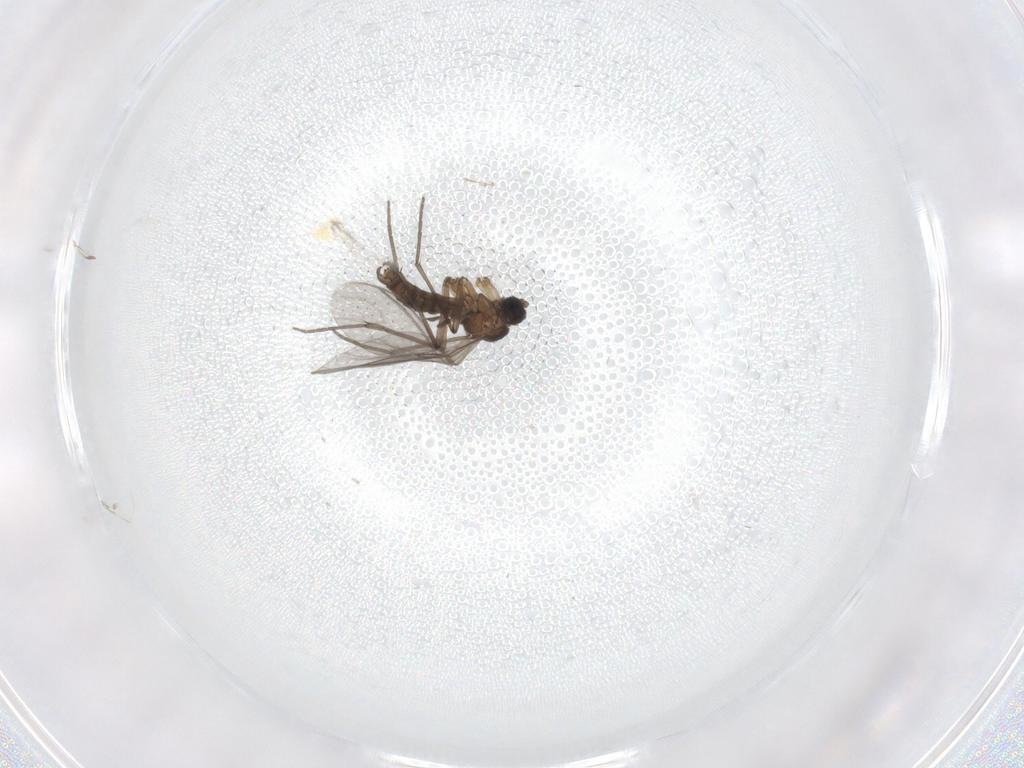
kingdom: Animalia
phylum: Arthropoda
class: Insecta
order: Diptera
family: Sciaridae
